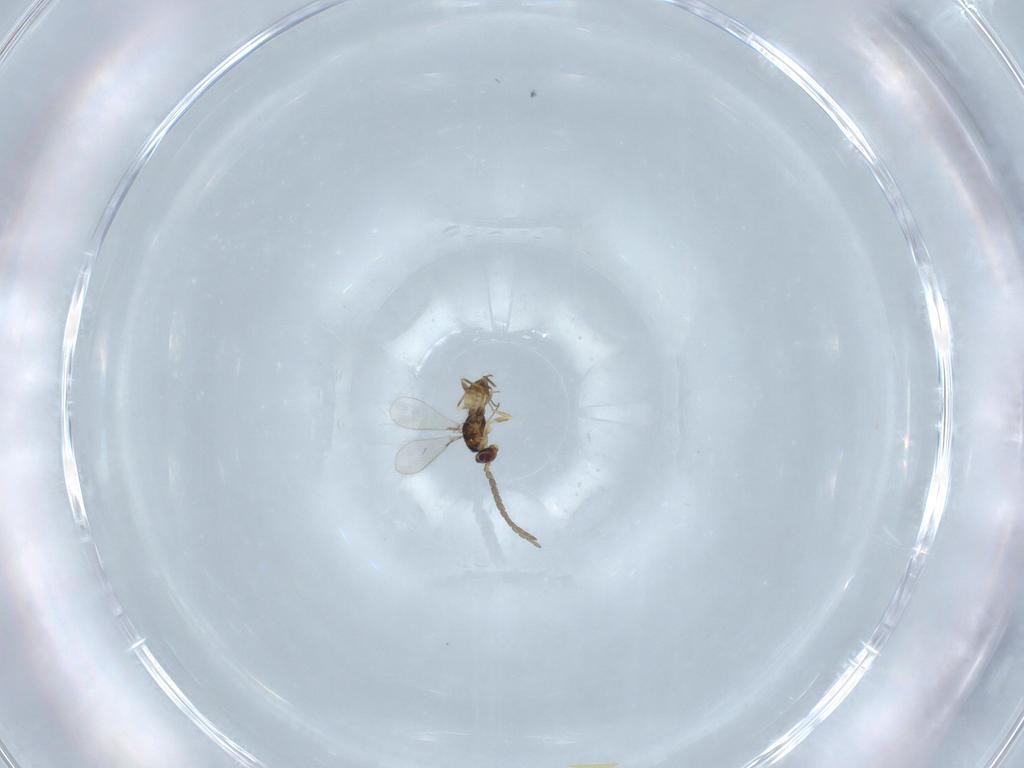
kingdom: Animalia
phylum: Arthropoda
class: Insecta
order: Hymenoptera
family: Mymaridae
